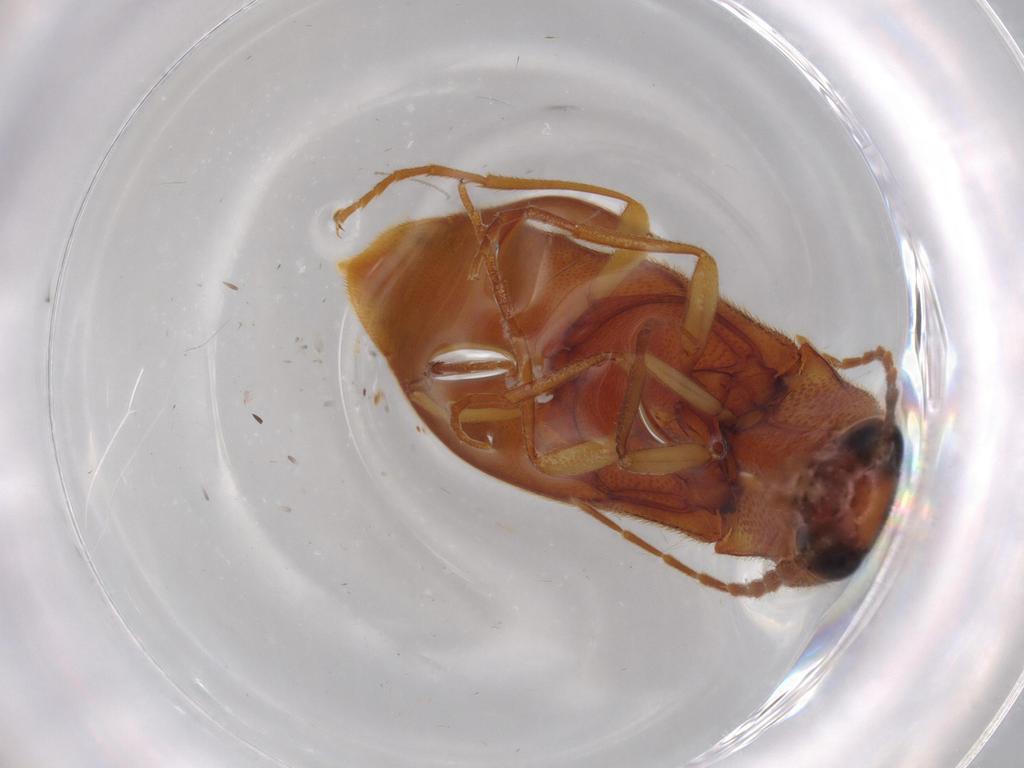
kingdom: Animalia
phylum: Arthropoda
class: Insecta
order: Coleoptera
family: Elateridae
